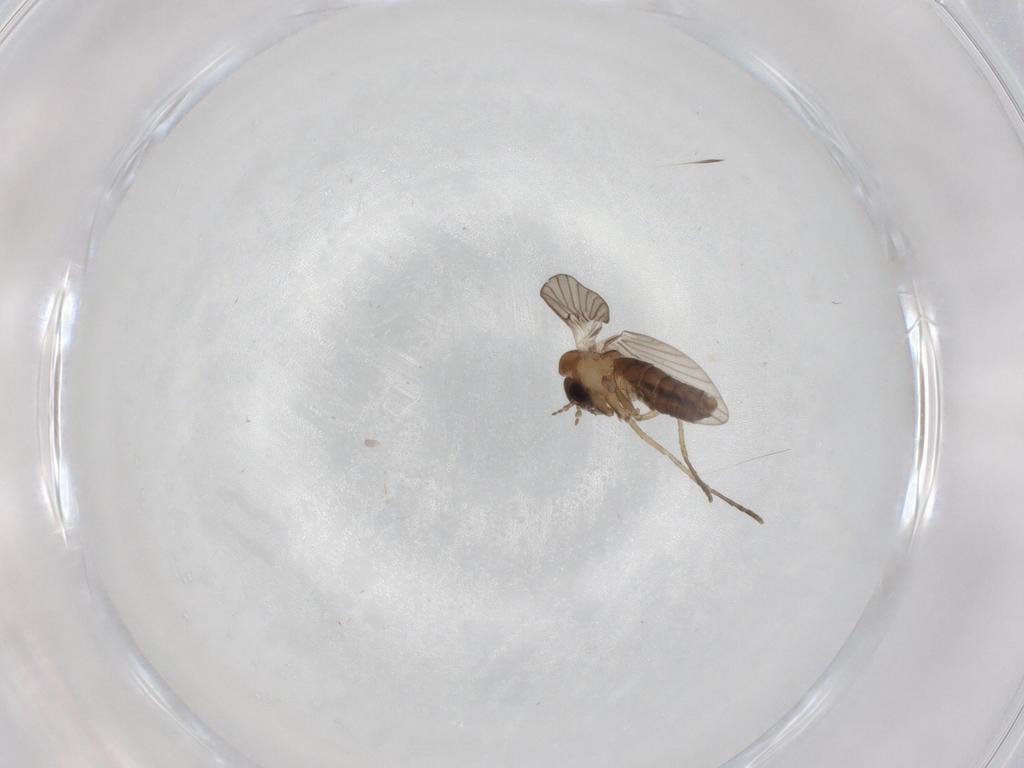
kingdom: Animalia
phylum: Arthropoda
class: Insecta
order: Diptera
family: Psychodidae
